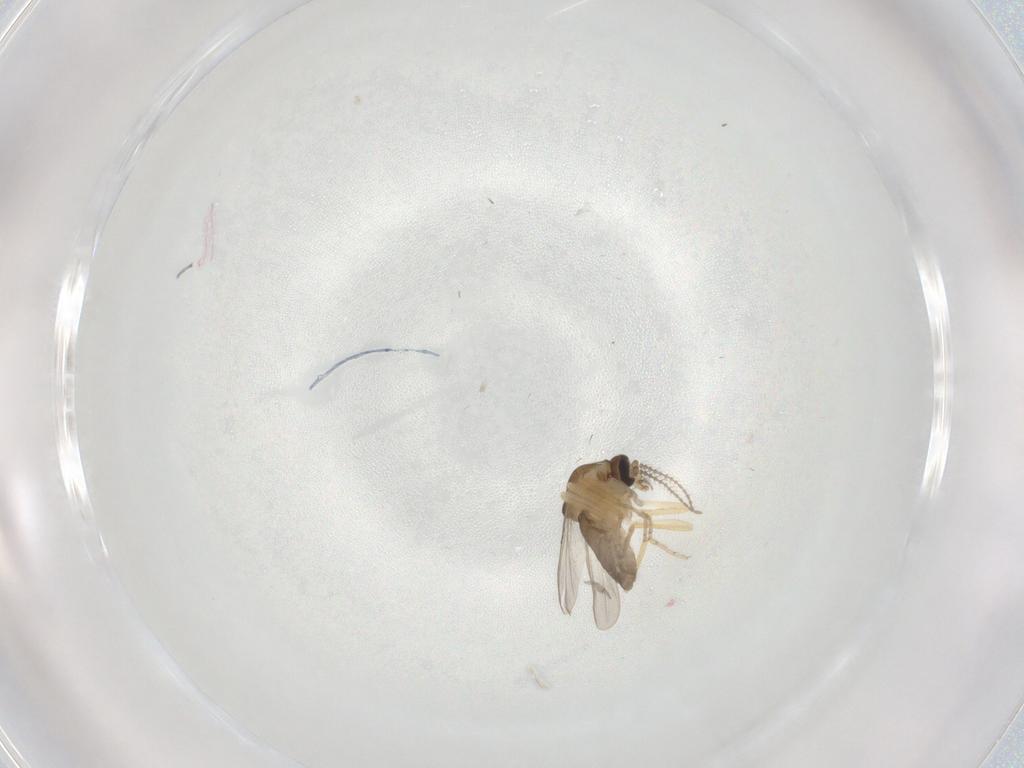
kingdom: Animalia
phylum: Arthropoda
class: Insecta
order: Diptera
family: Ceratopogonidae
